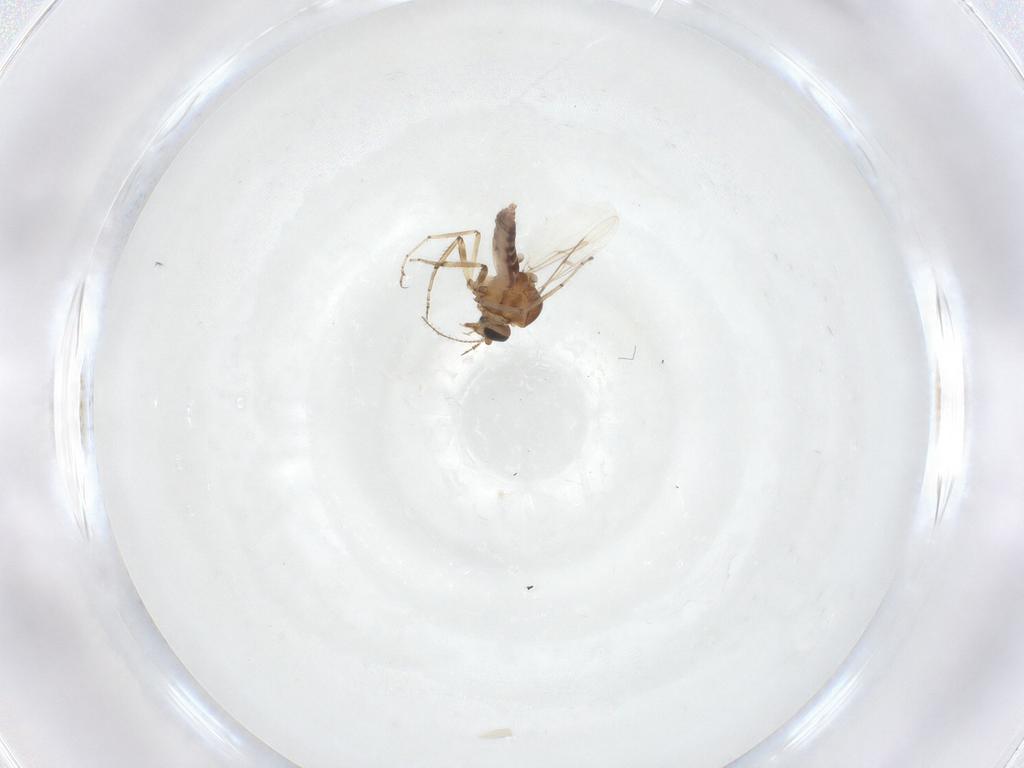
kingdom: Animalia
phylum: Arthropoda
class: Insecta
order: Diptera
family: Ceratopogonidae
